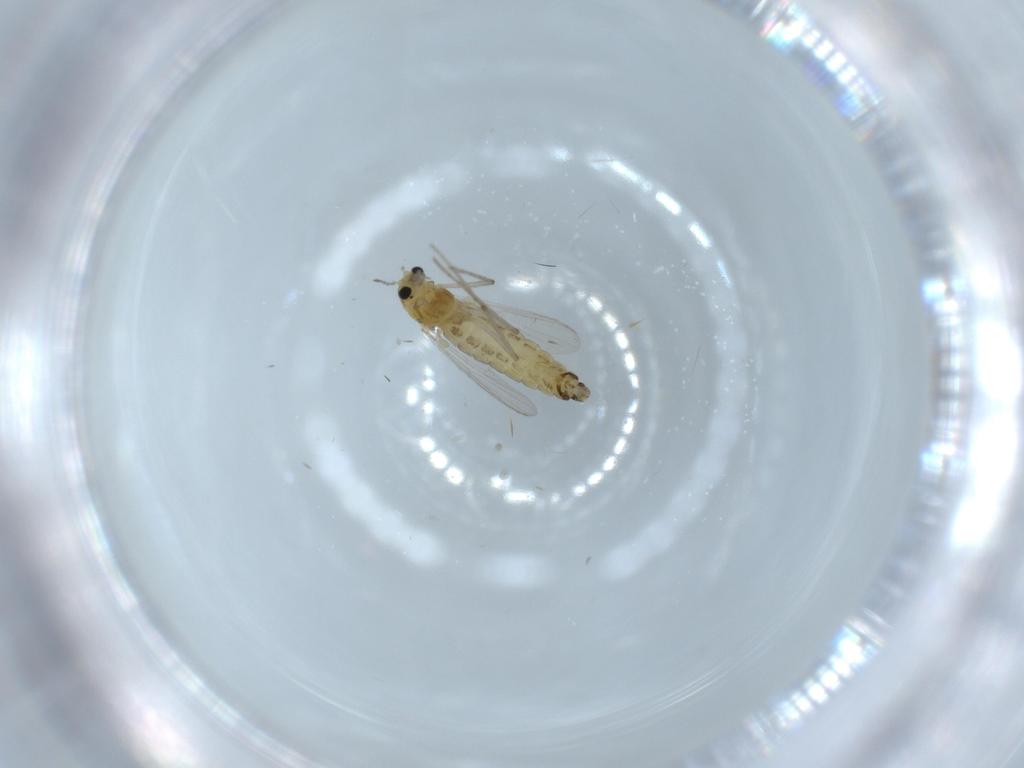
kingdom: Animalia
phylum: Arthropoda
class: Insecta
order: Diptera
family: Chironomidae
